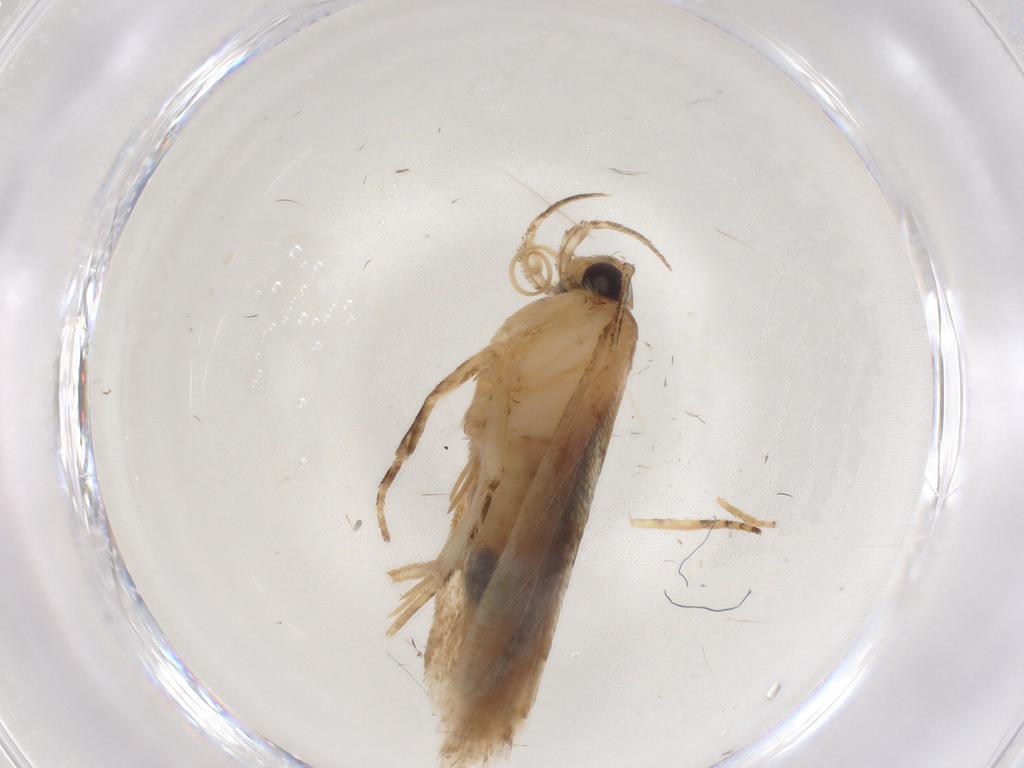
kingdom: Animalia
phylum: Arthropoda
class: Insecta
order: Lepidoptera
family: Gelechiidae
